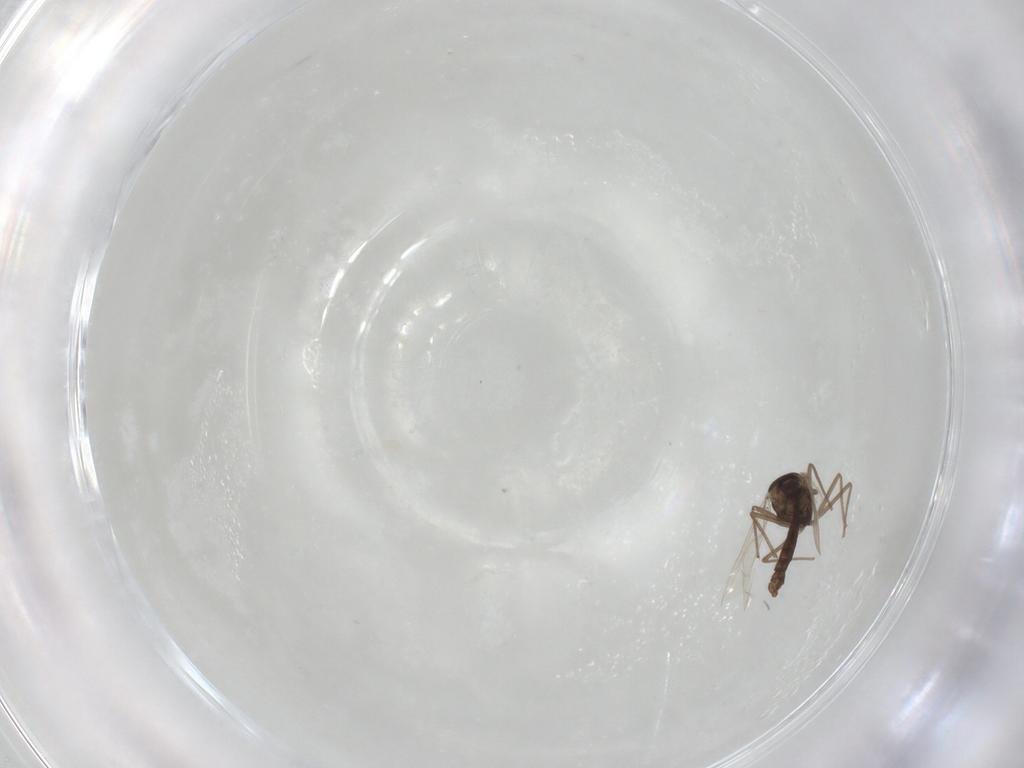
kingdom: Animalia
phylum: Arthropoda
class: Insecta
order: Diptera
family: Chironomidae
